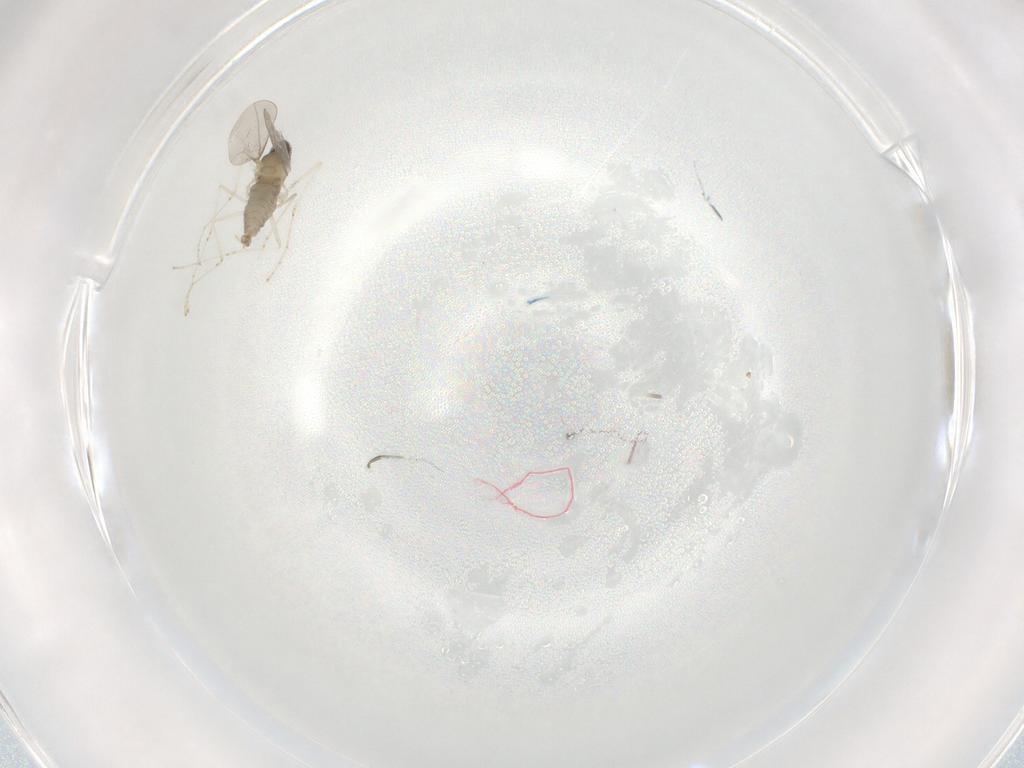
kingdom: Animalia
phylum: Arthropoda
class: Insecta
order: Diptera
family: Cecidomyiidae
